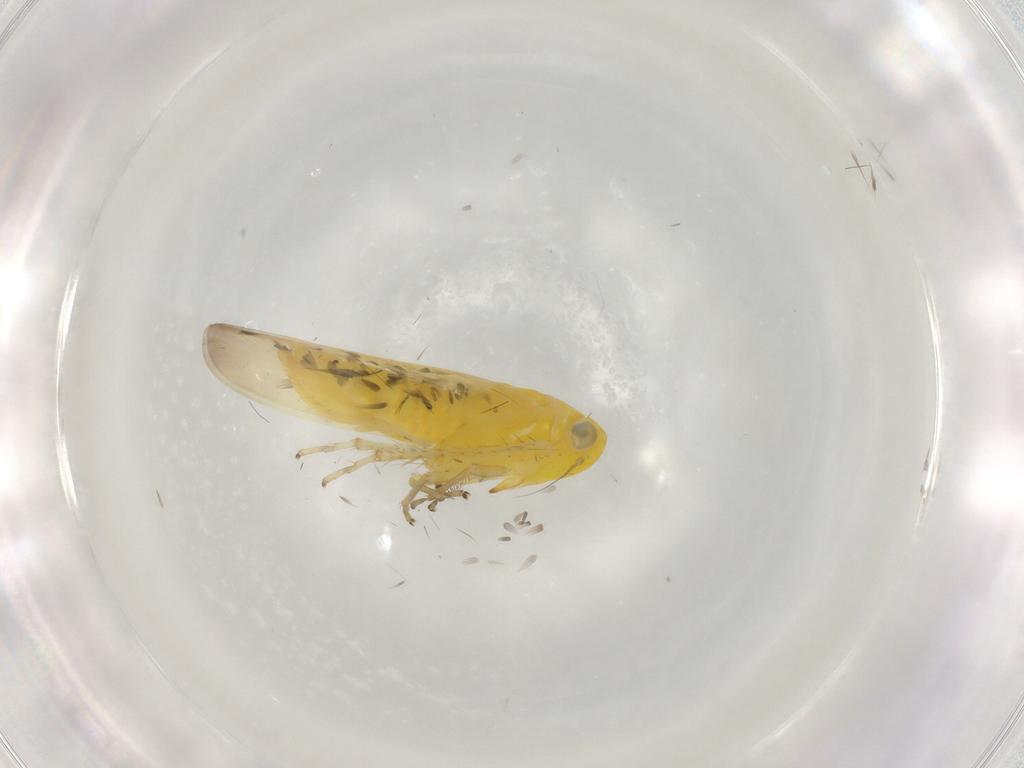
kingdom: Animalia
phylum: Arthropoda
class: Insecta
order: Hemiptera
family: Cicadellidae
